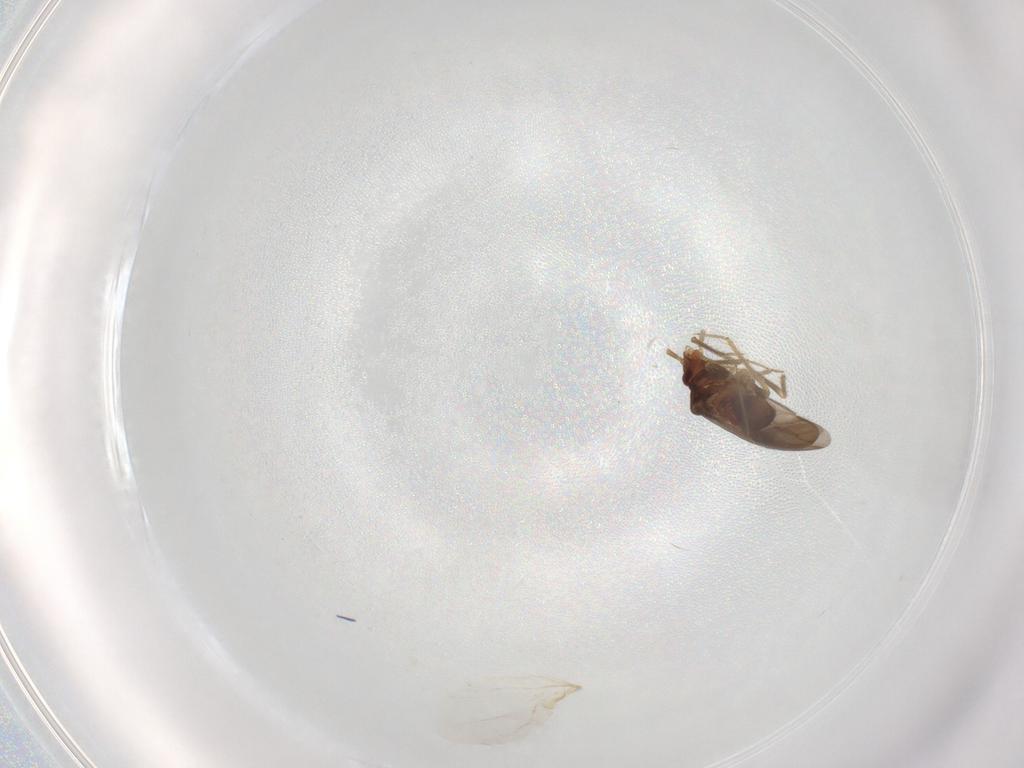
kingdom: Animalia
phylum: Arthropoda
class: Insecta
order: Hemiptera
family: Ceratocombidae
